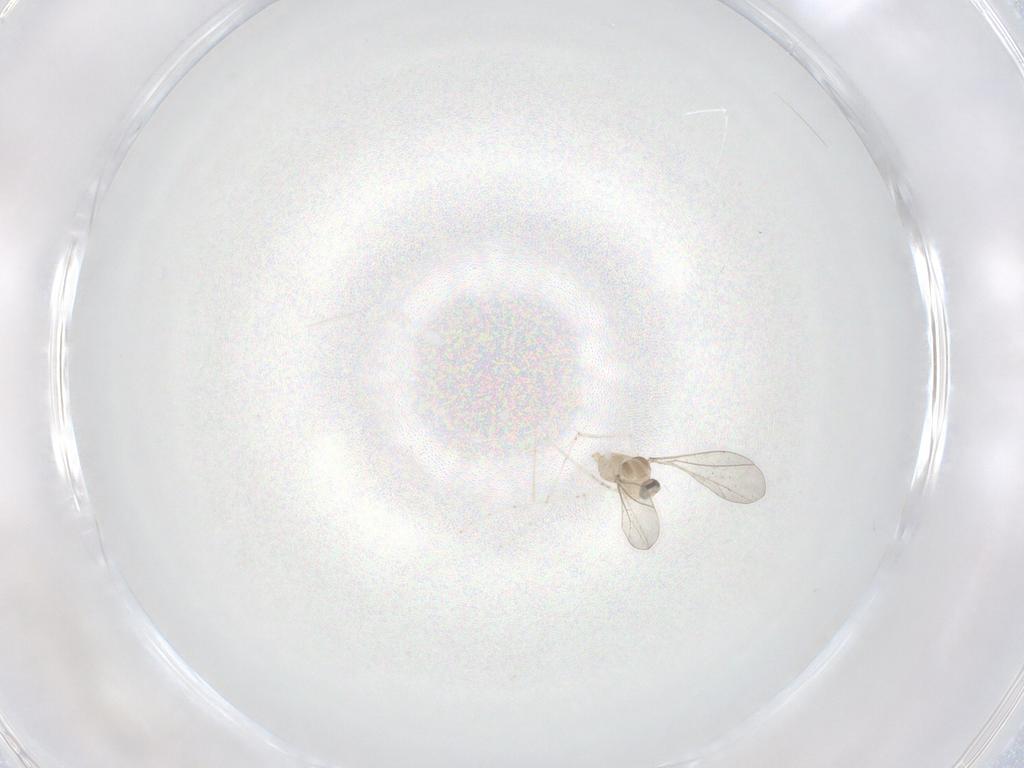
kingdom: Animalia
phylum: Arthropoda
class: Insecta
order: Diptera
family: Cecidomyiidae
